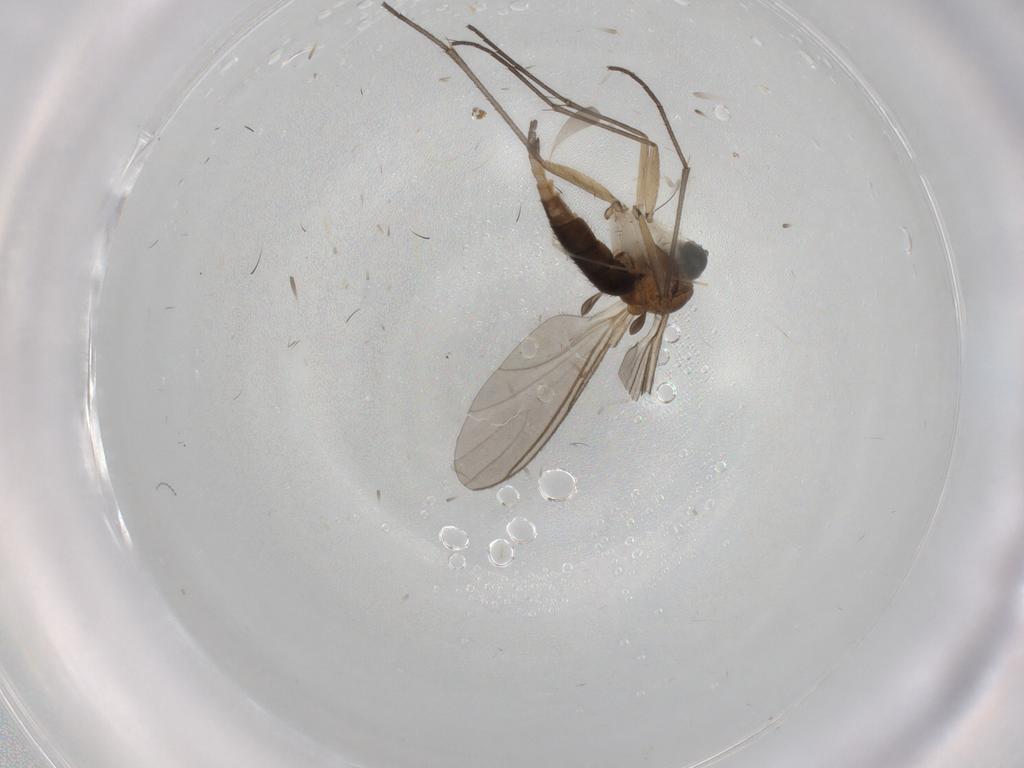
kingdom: Animalia
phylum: Arthropoda
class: Insecta
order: Diptera
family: Sciaridae
